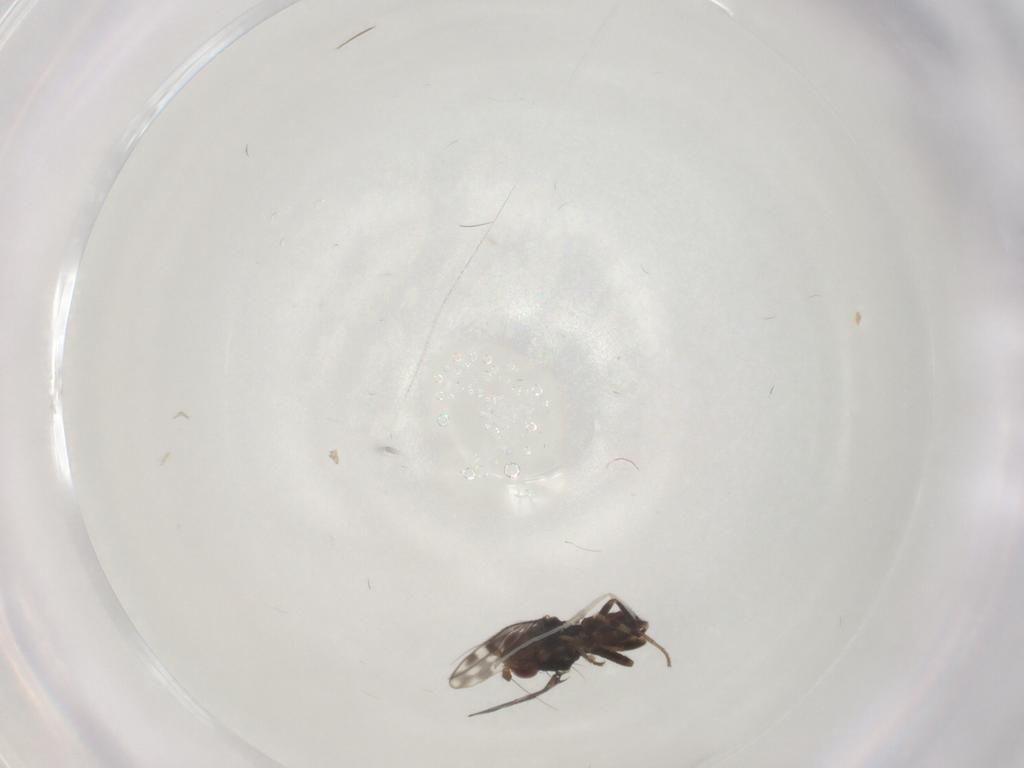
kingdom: Animalia
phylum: Arthropoda
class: Insecta
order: Diptera
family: Sphaeroceridae
